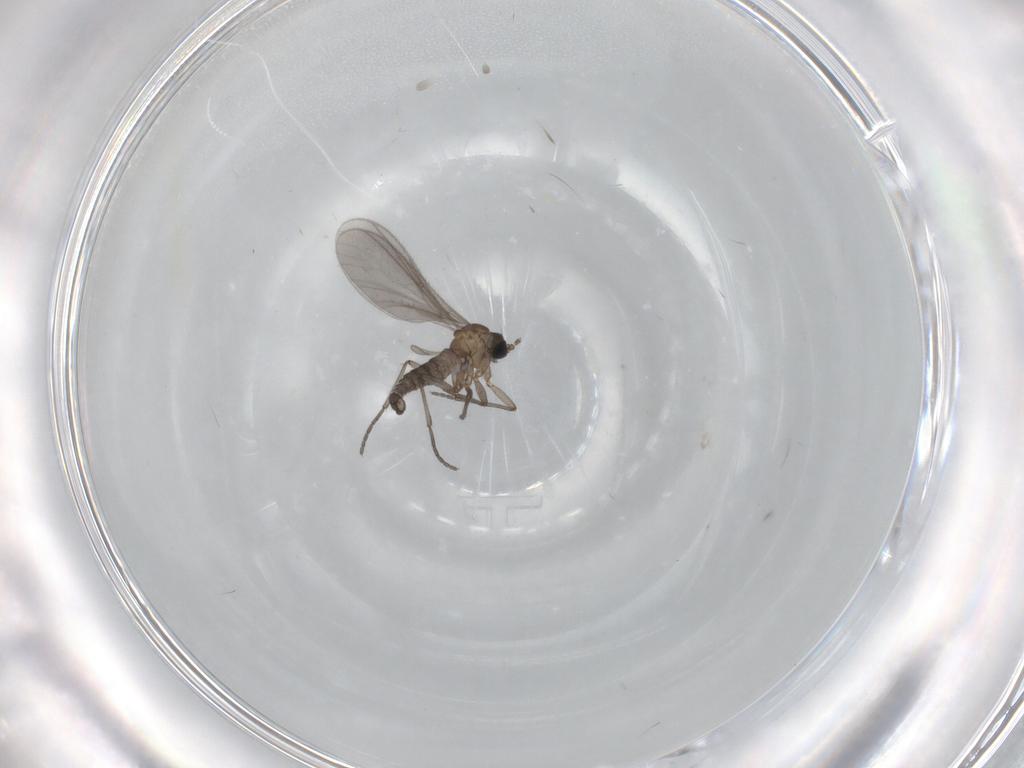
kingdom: Animalia
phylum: Arthropoda
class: Insecta
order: Diptera
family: Sciaridae
